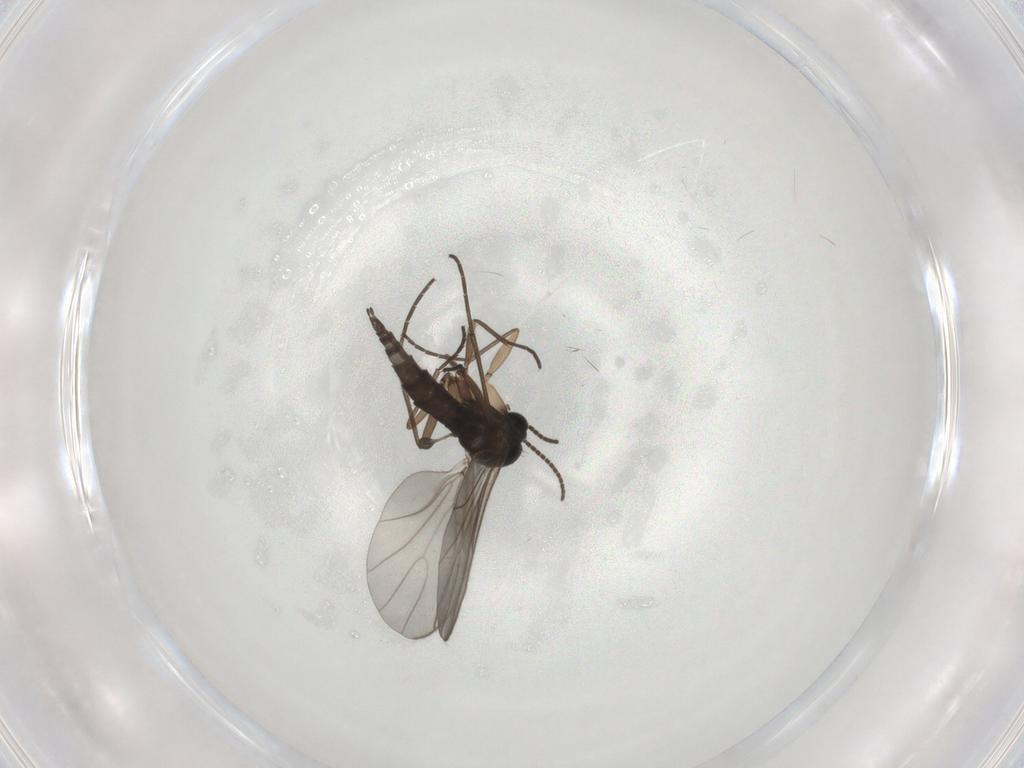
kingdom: Animalia
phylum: Arthropoda
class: Insecta
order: Diptera
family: Sciaridae
